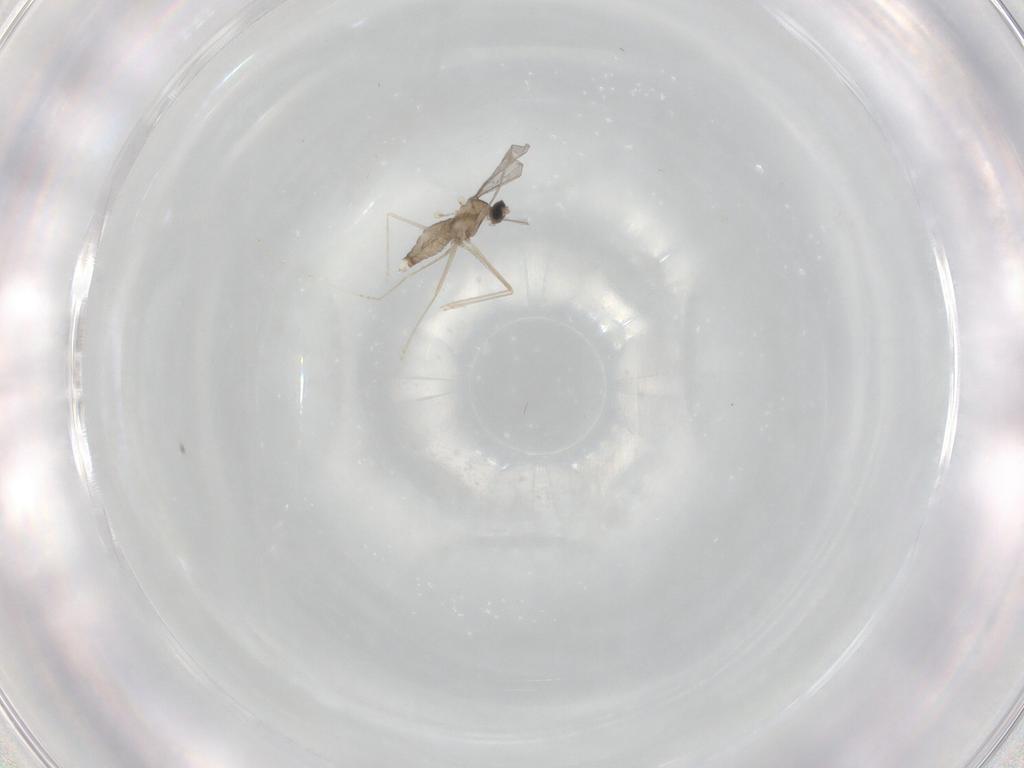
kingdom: Animalia
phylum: Arthropoda
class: Insecta
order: Diptera
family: Cecidomyiidae
